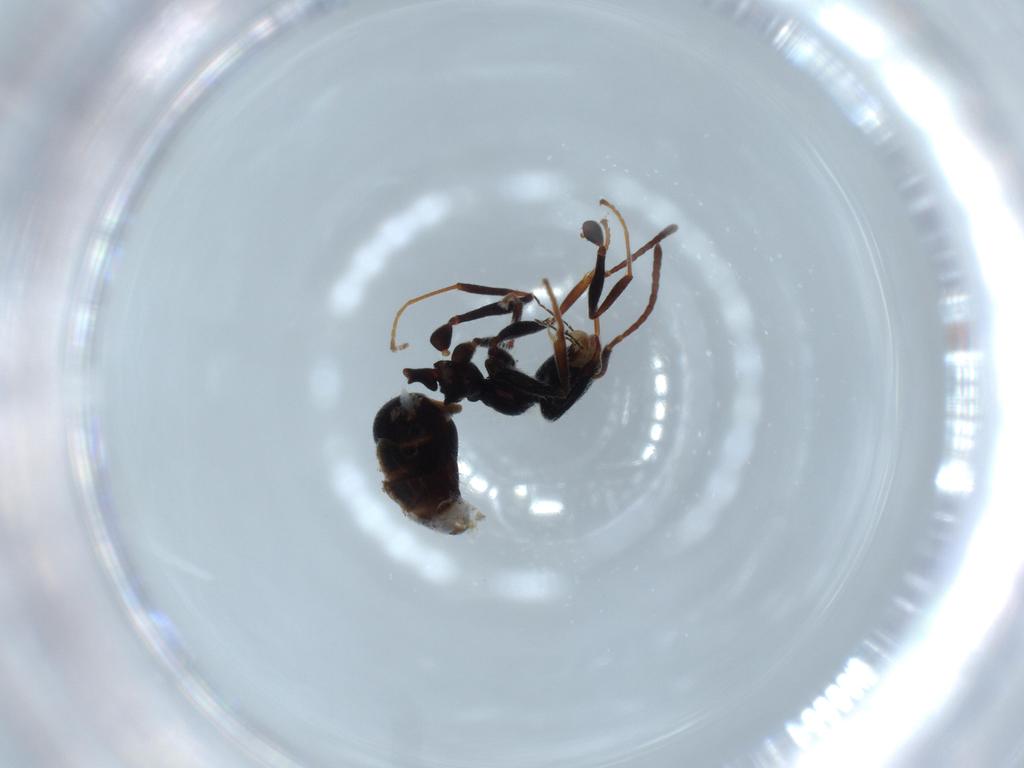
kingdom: Animalia
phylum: Arthropoda
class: Insecta
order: Hymenoptera
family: Formicidae
